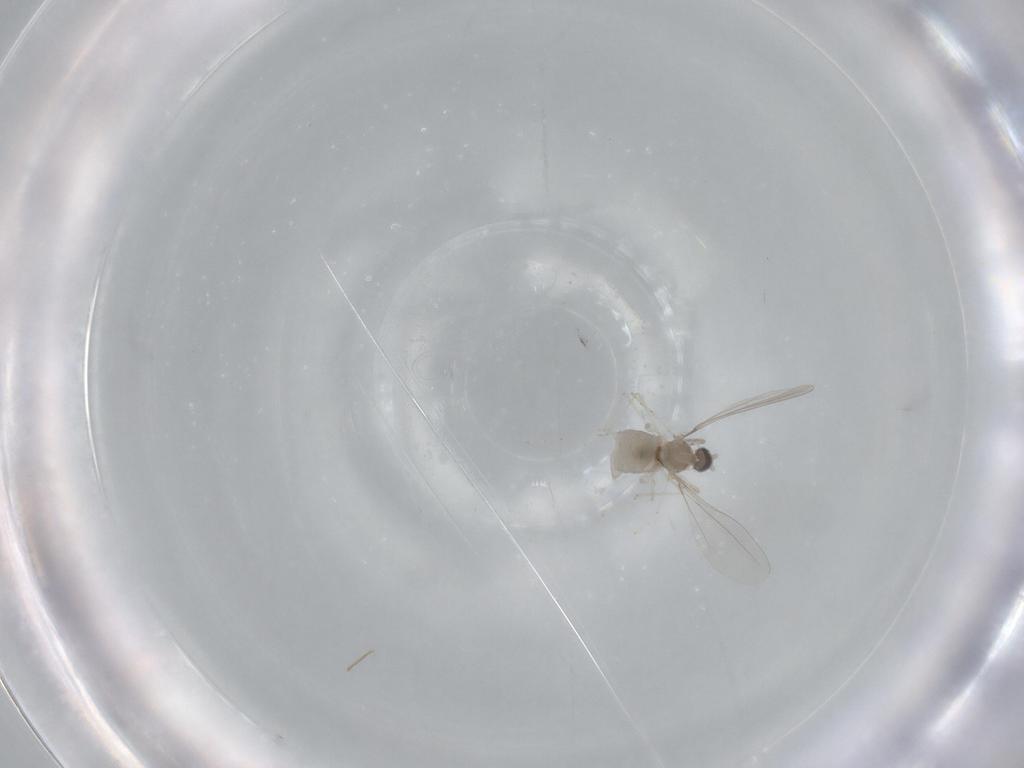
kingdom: Animalia
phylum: Arthropoda
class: Insecta
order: Diptera
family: Cecidomyiidae
